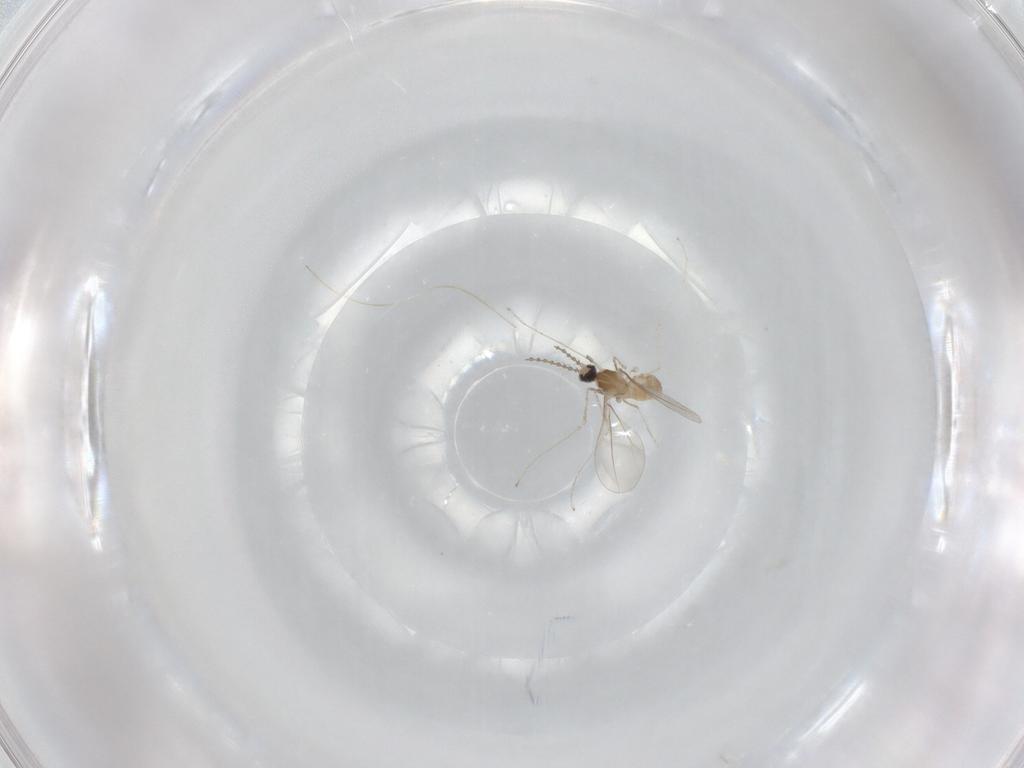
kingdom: Animalia
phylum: Arthropoda
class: Insecta
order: Diptera
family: Cecidomyiidae
